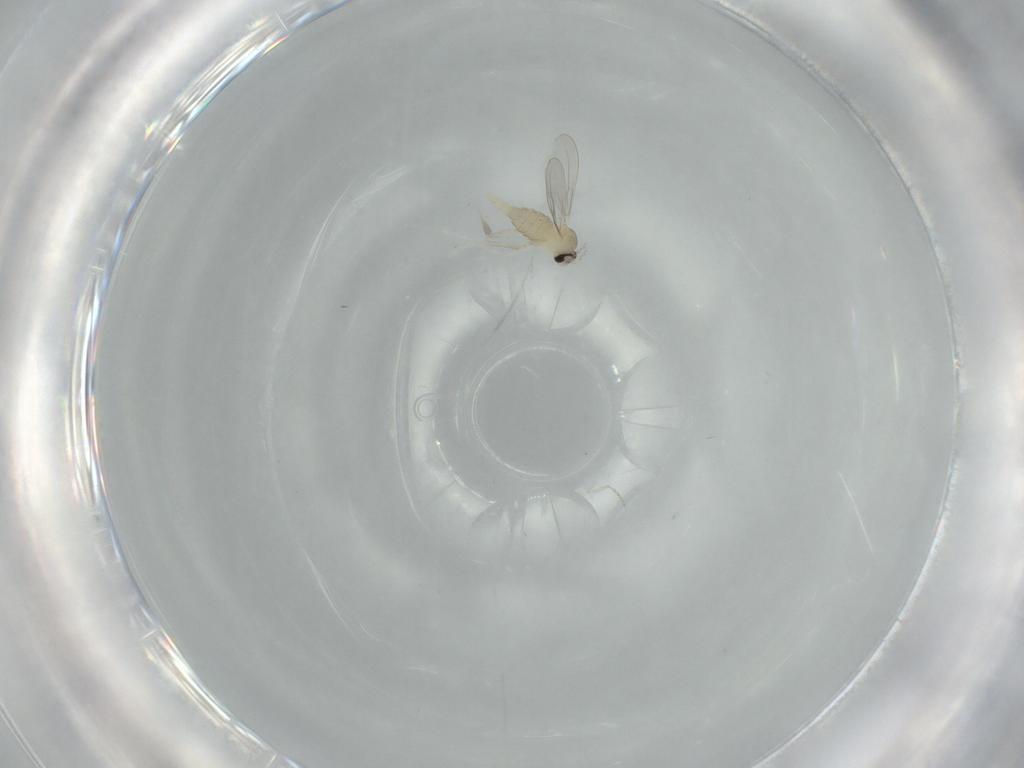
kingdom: Animalia
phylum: Arthropoda
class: Insecta
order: Diptera
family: Cecidomyiidae
